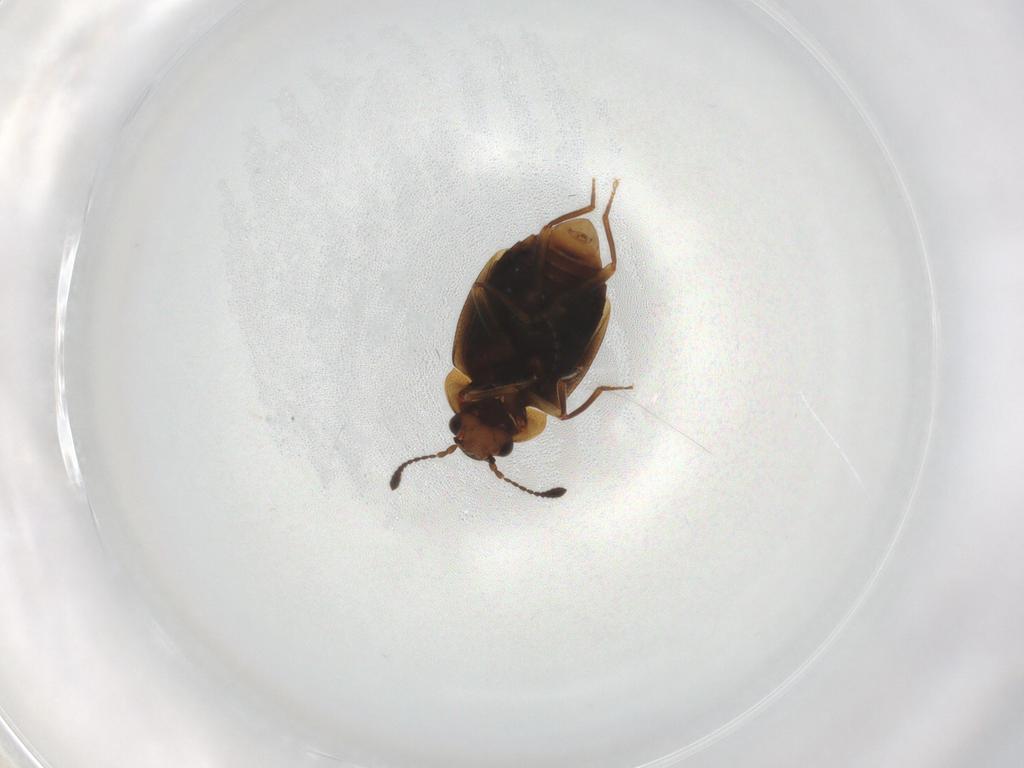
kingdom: Animalia
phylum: Arthropoda
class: Insecta
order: Coleoptera
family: Staphylinidae
